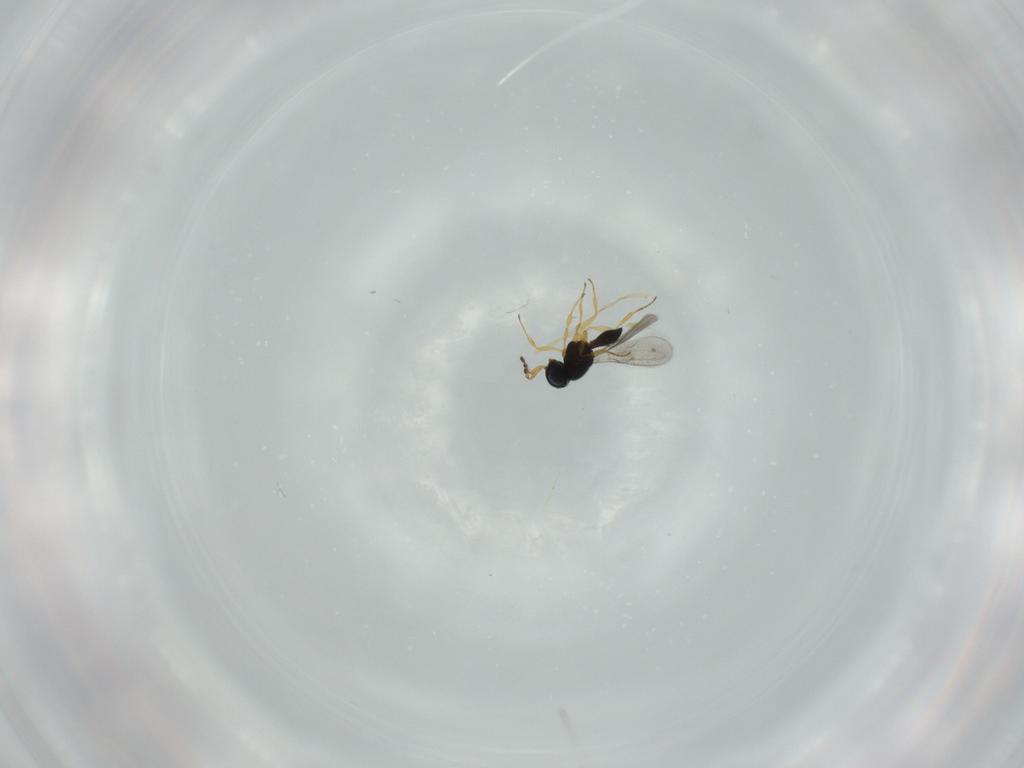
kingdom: Animalia
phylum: Arthropoda
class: Insecta
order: Hymenoptera
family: Scelionidae
